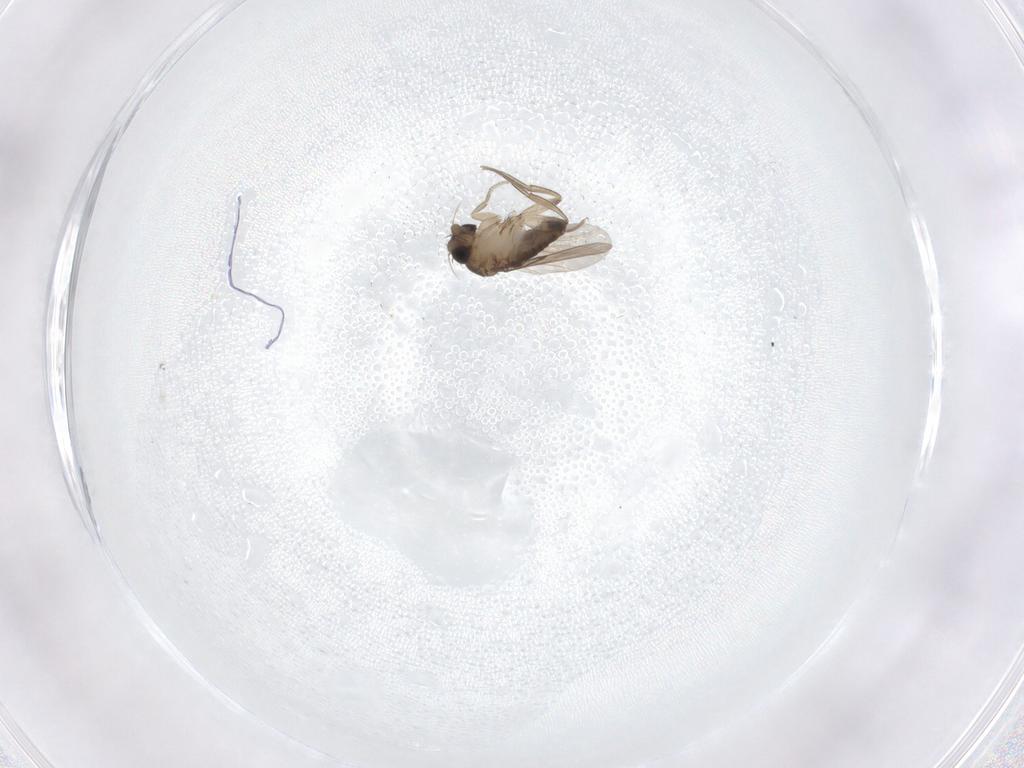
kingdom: Animalia
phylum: Arthropoda
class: Insecta
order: Diptera
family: Phoridae
